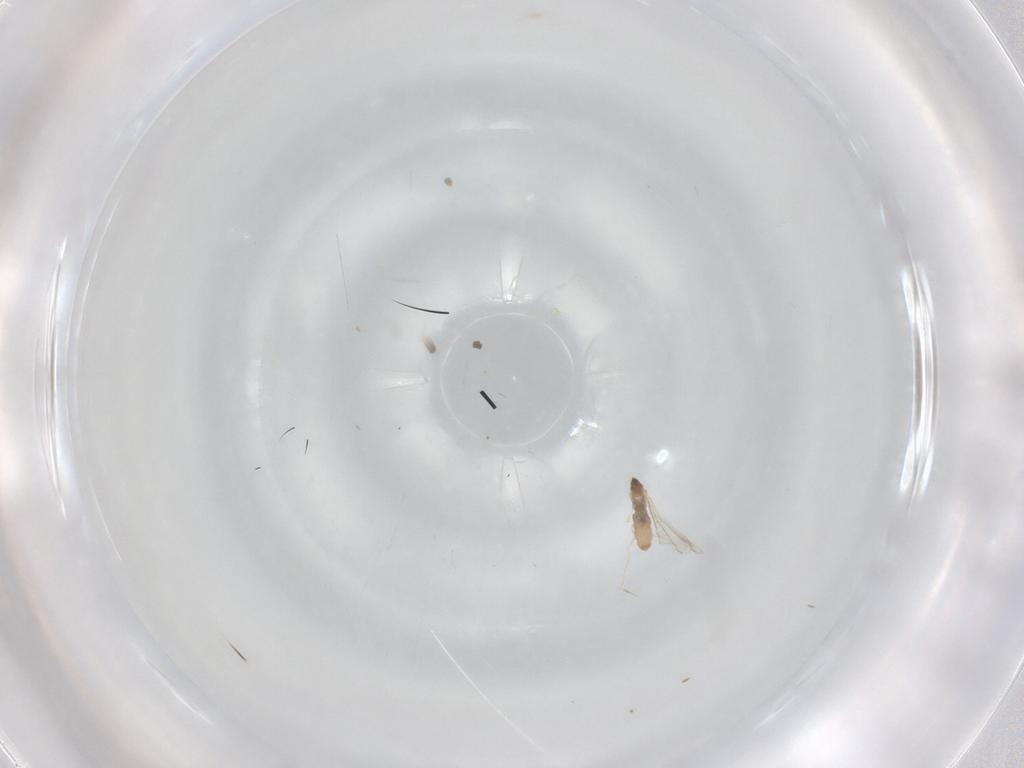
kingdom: Animalia
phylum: Arthropoda
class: Insecta
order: Diptera
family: Cecidomyiidae
